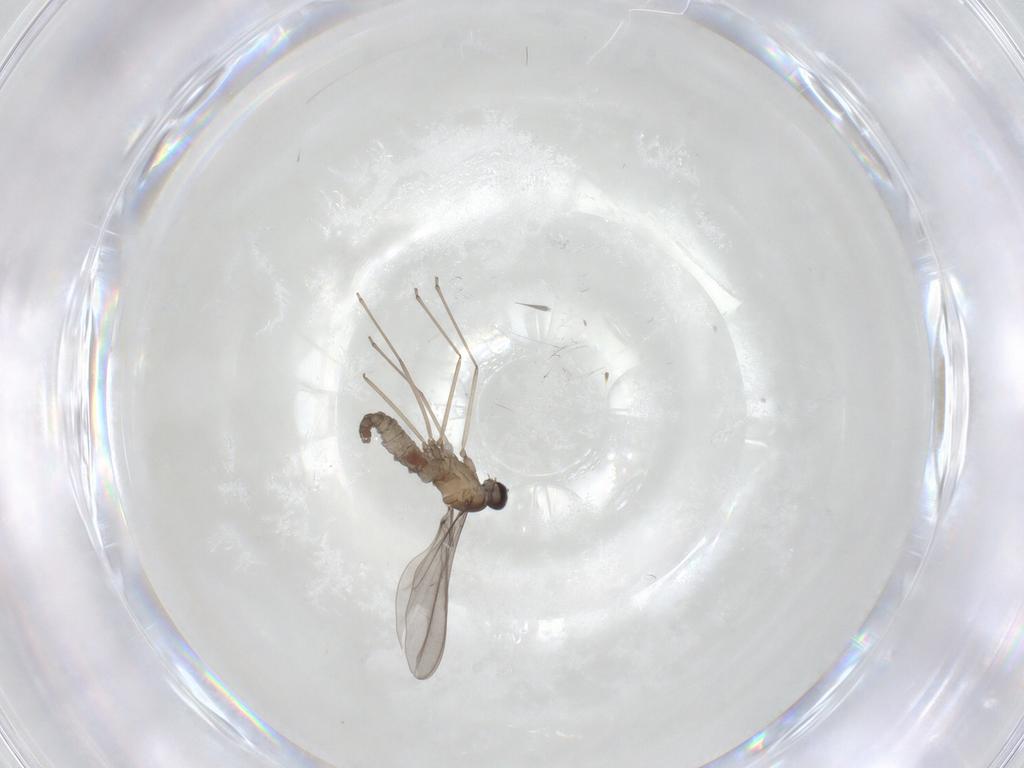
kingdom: Animalia
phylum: Arthropoda
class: Insecta
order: Diptera
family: Cecidomyiidae
